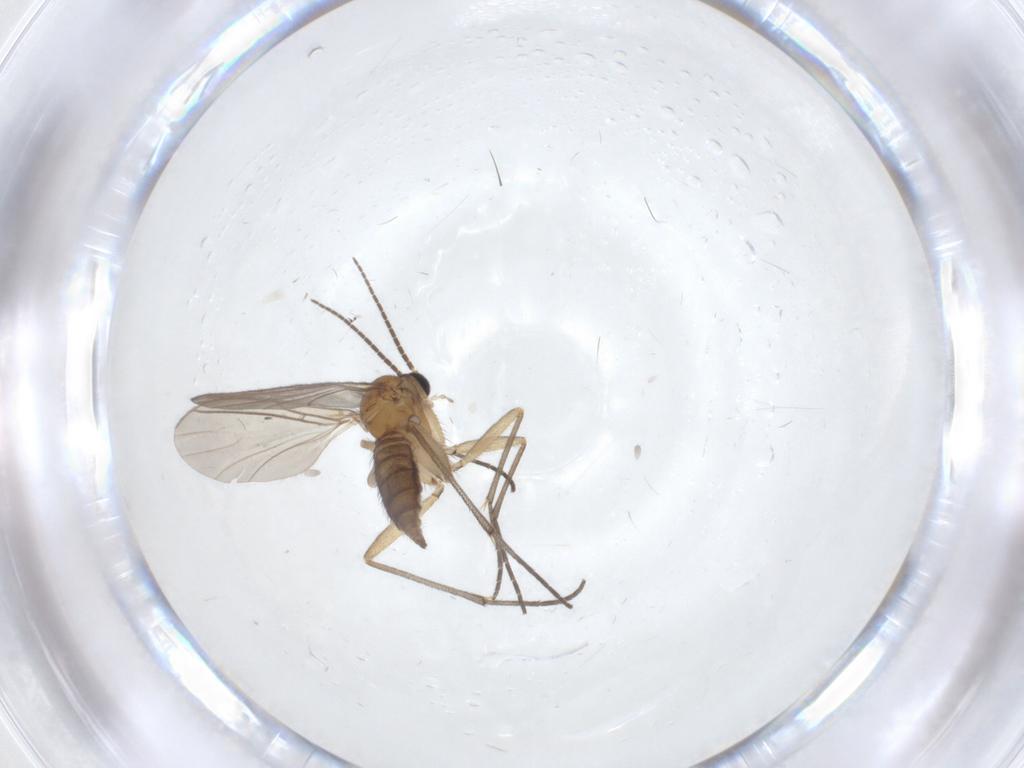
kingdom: Animalia
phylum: Arthropoda
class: Insecta
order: Diptera
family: Sciaridae
